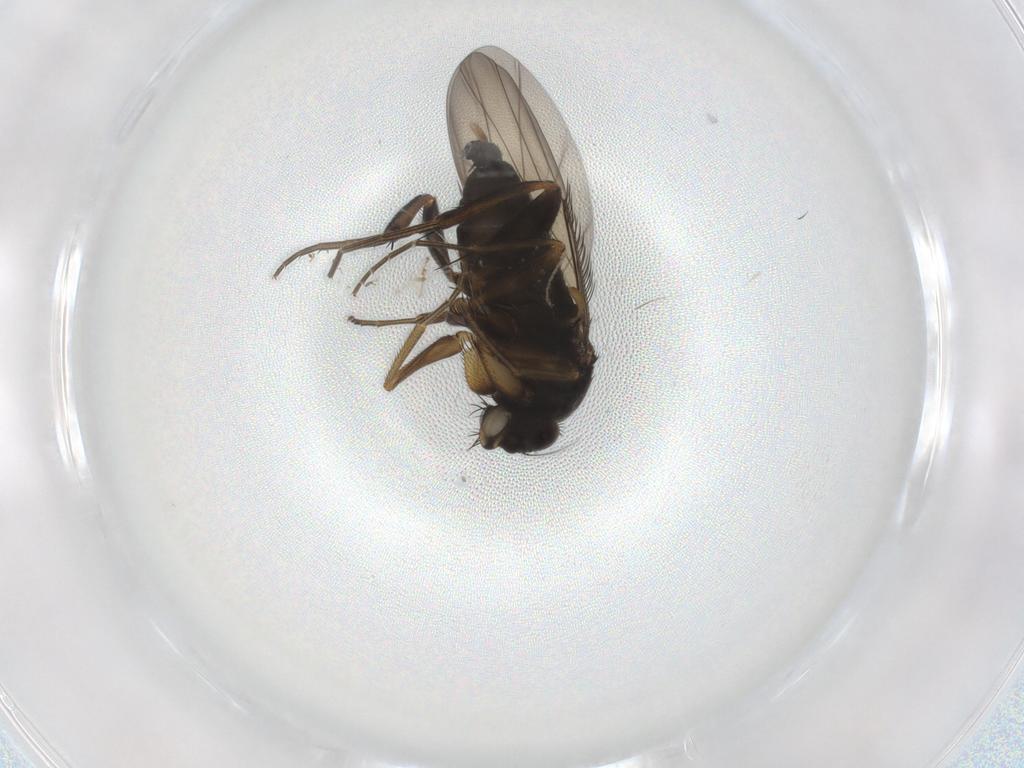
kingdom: Animalia
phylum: Arthropoda
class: Insecta
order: Diptera
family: Phoridae
